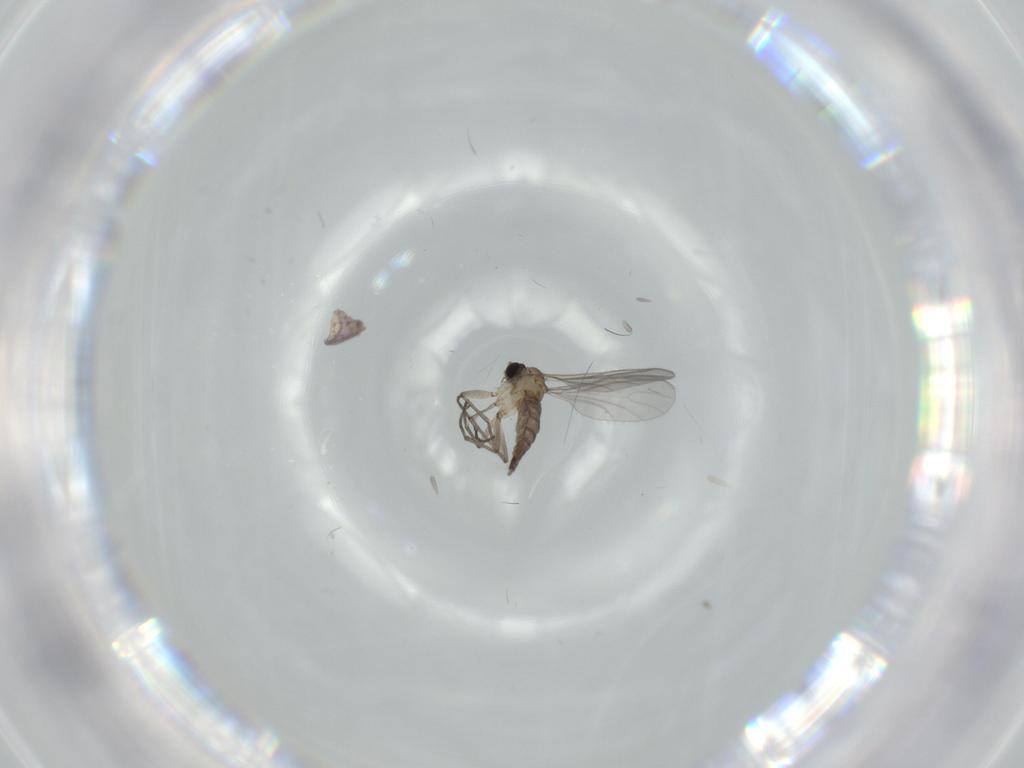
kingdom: Animalia
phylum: Arthropoda
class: Insecta
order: Diptera
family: Sciaridae
